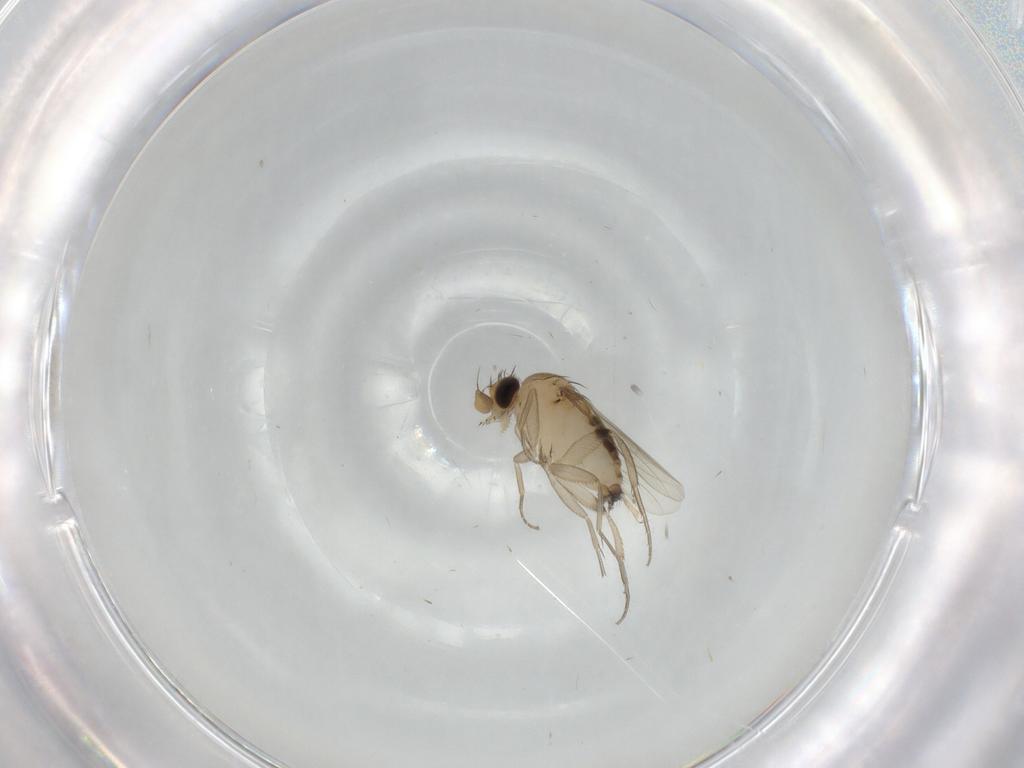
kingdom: Animalia
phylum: Arthropoda
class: Insecta
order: Diptera
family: Phoridae
